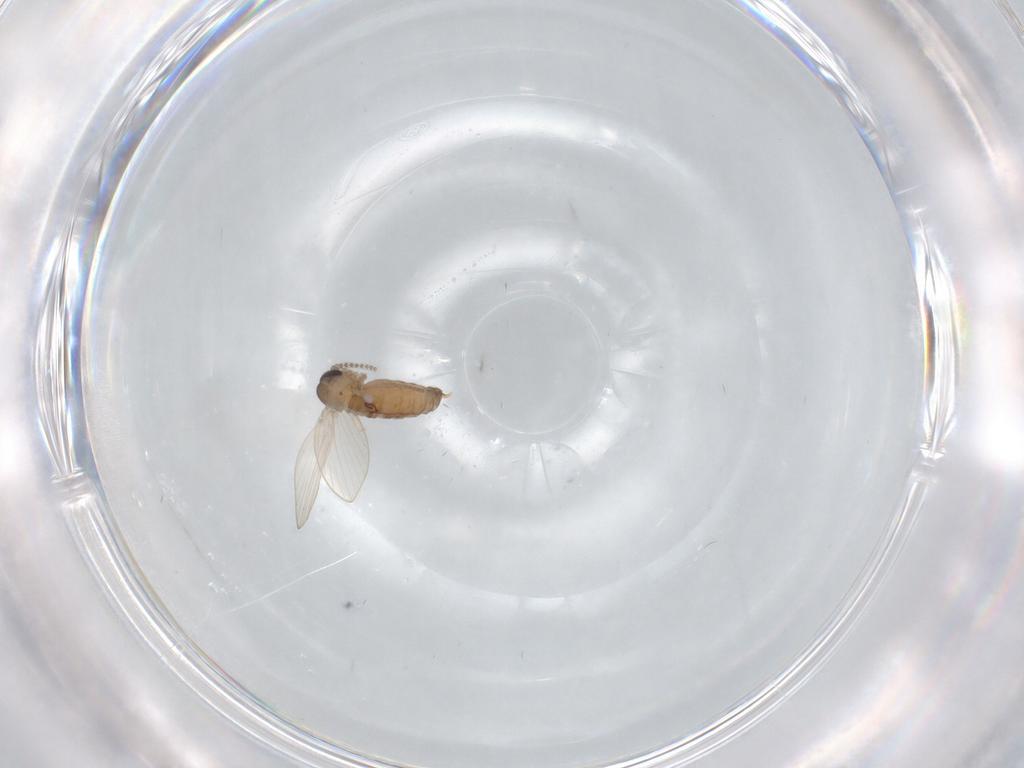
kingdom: Animalia
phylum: Arthropoda
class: Insecta
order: Diptera
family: Psychodidae
